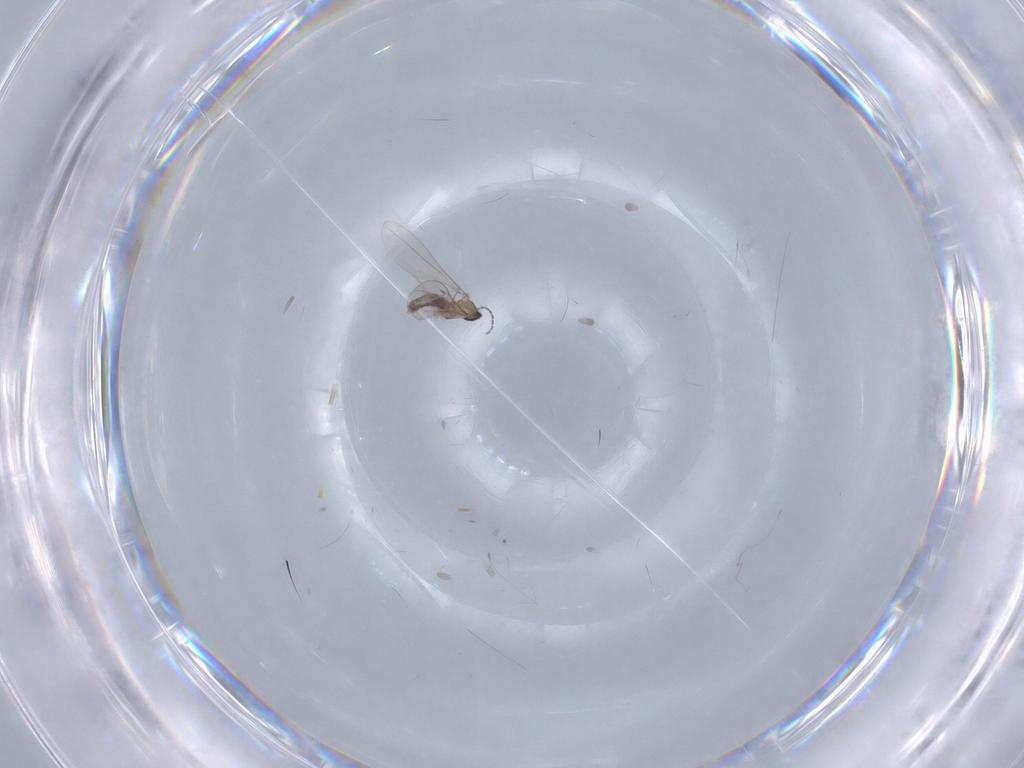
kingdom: Animalia
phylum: Arthropoda
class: Insecta
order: Diptera
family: Cecidomyiidae
